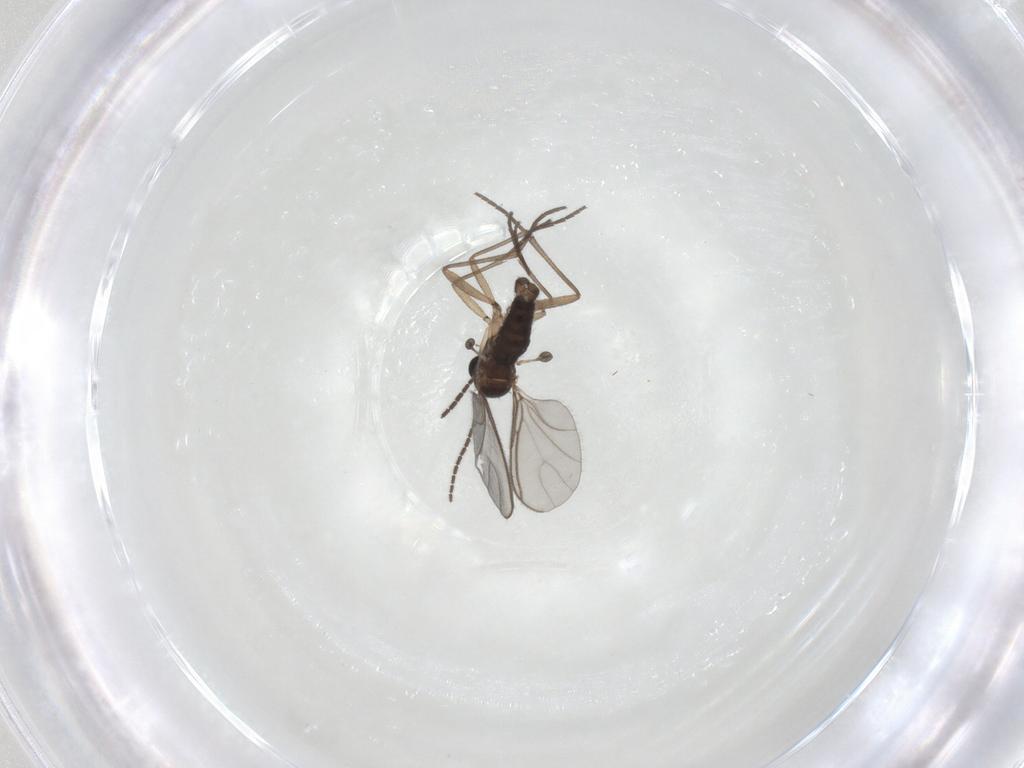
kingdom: Animalia
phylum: Arthropoda
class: Insecta
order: Diptera
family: Sciaridae
